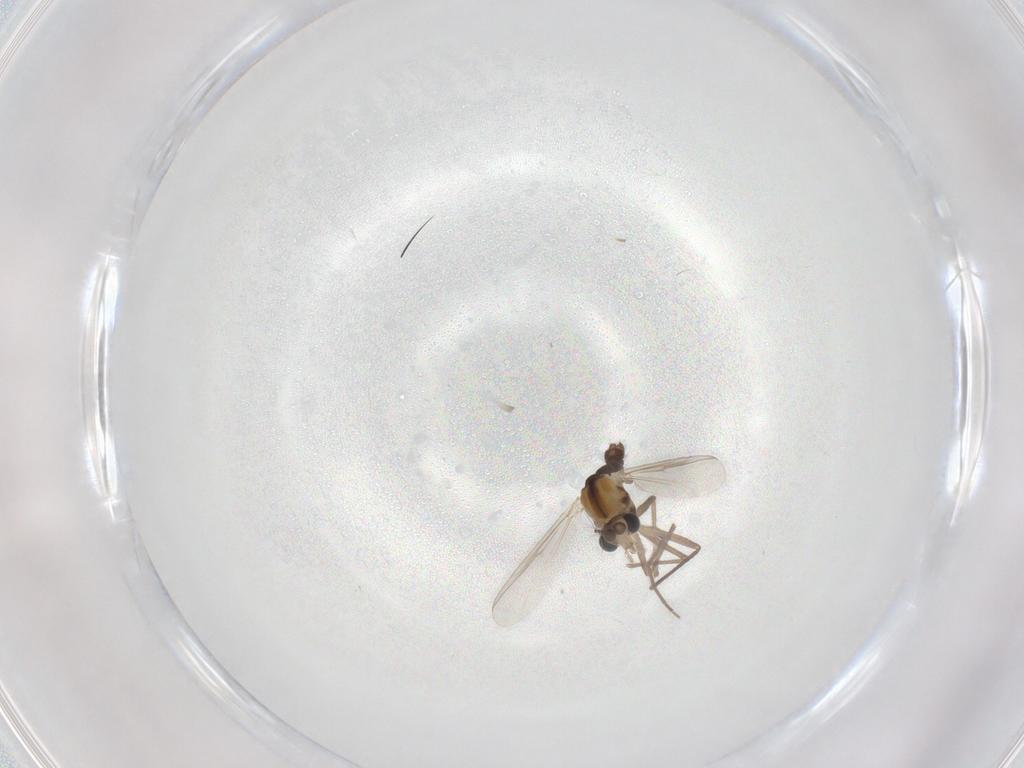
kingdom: Animalia
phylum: Arthropoda
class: Insecta
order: Diptera
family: Chironomidae
